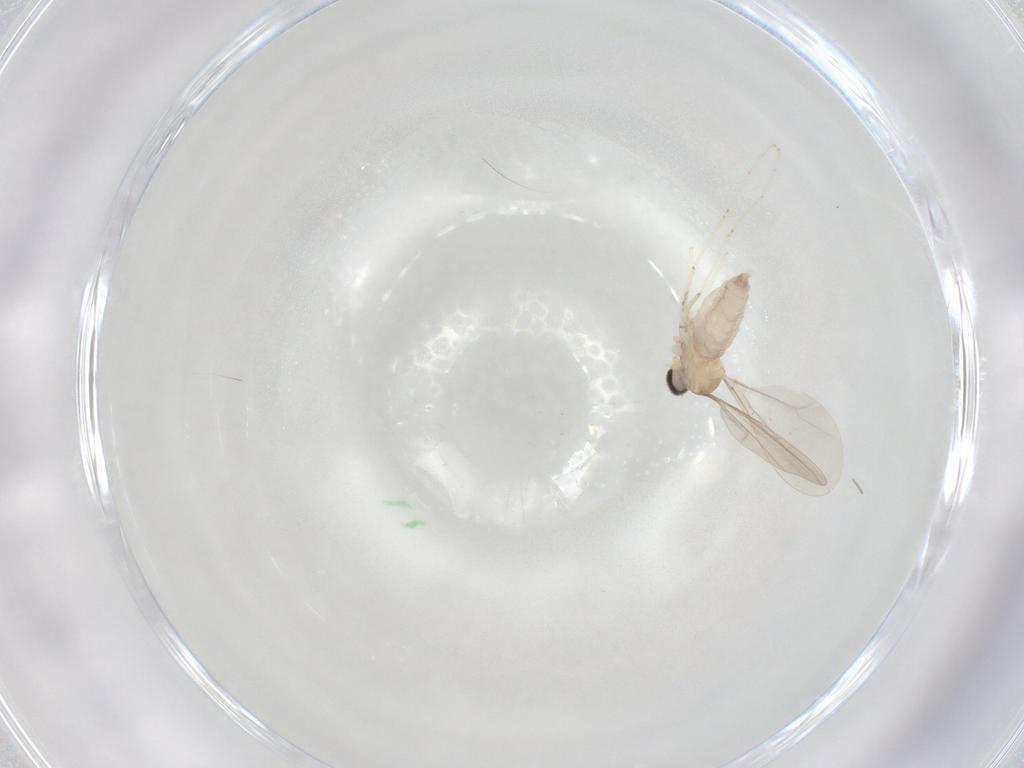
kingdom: Animalia
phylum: Arthropoda
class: Insecta
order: Diptera
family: Cecidomyiidae
